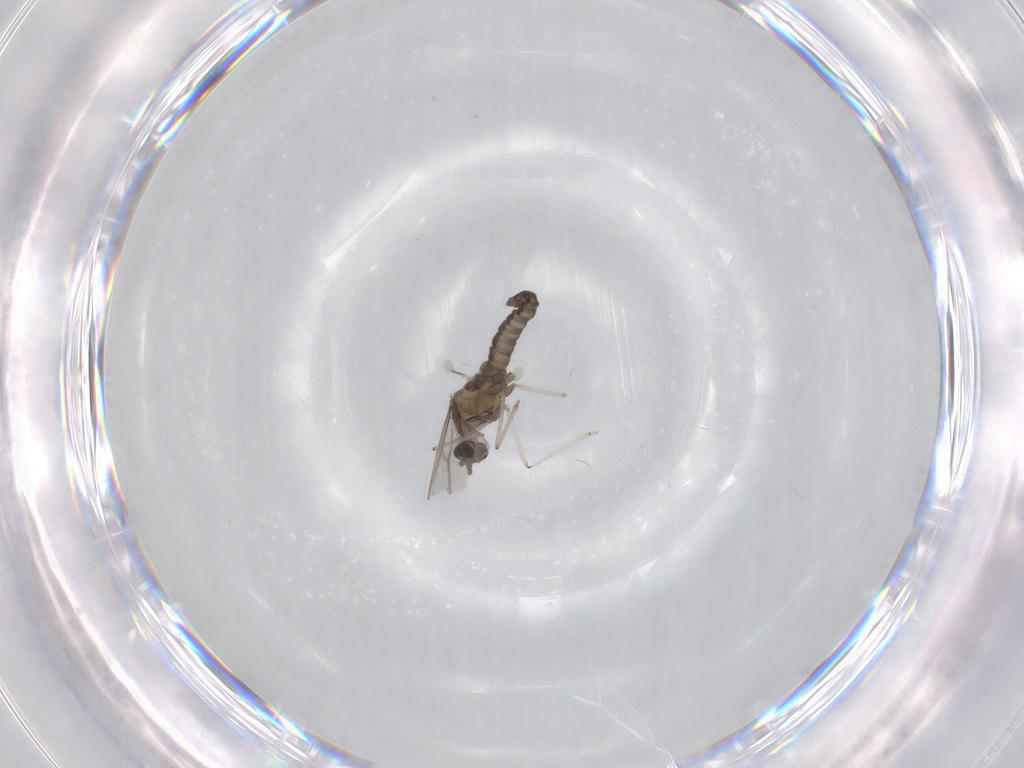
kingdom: Animalia
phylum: Arthropoda
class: Insecta
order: Diptera
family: Cecidomyiidae
